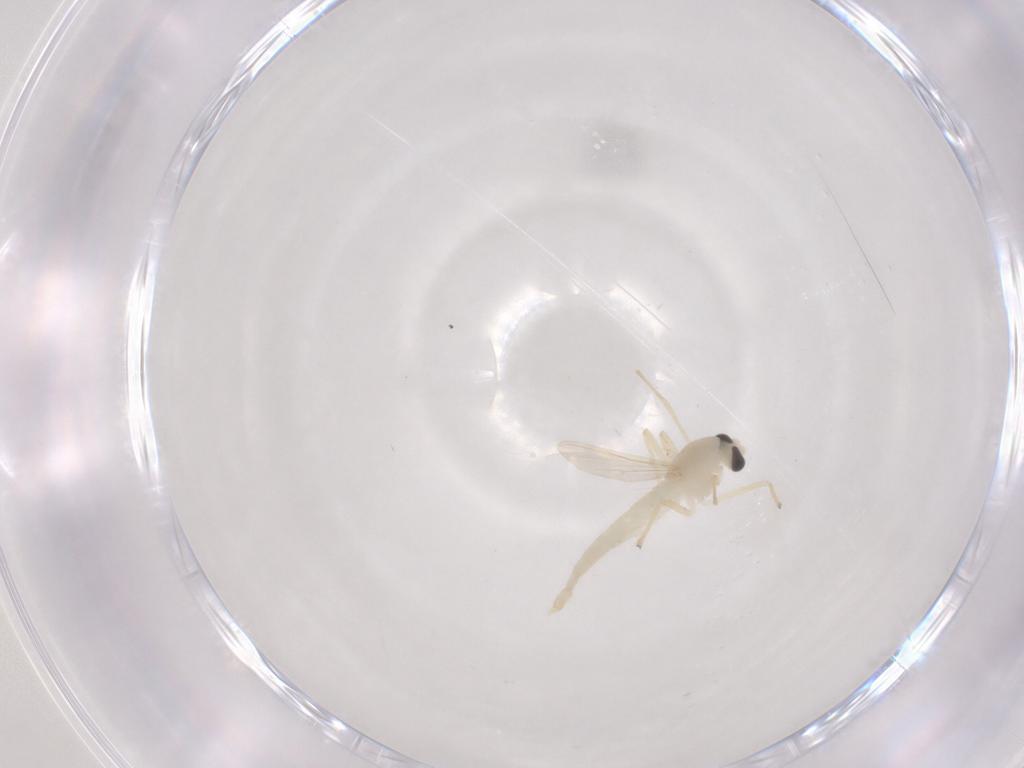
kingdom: Animalia
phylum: Arthropoda
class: Insecta
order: Diptera
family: Chironomidae
